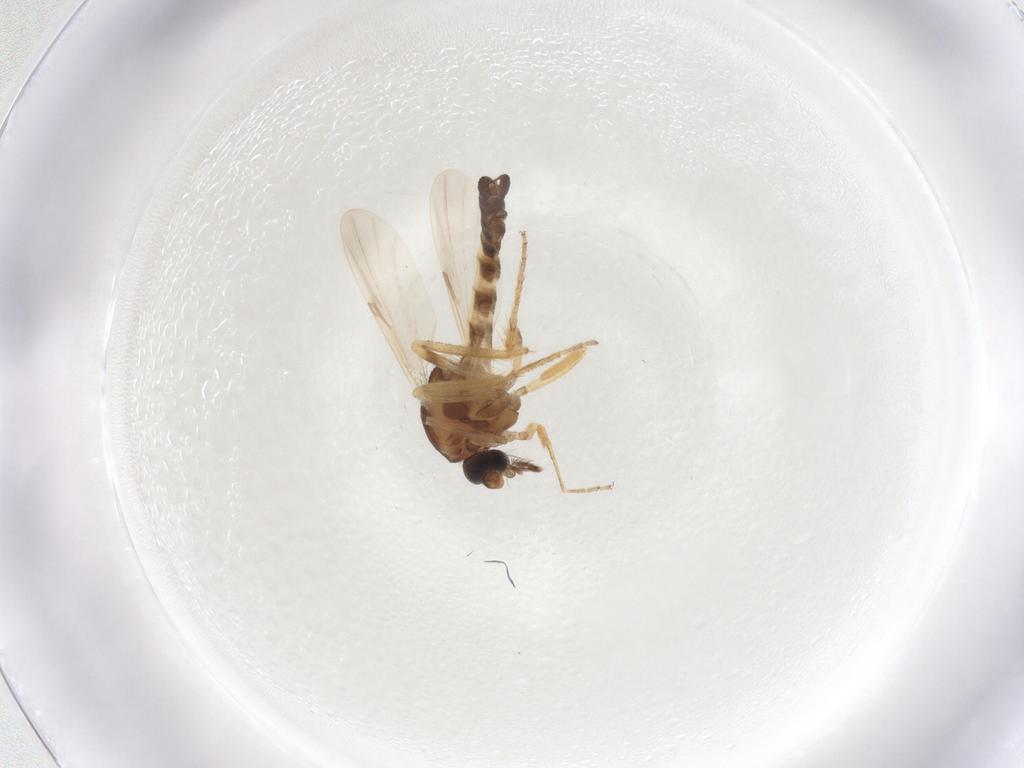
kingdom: Animalia
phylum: Arthropoda
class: Insecta
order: Diptera
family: Ceratopogonidae
